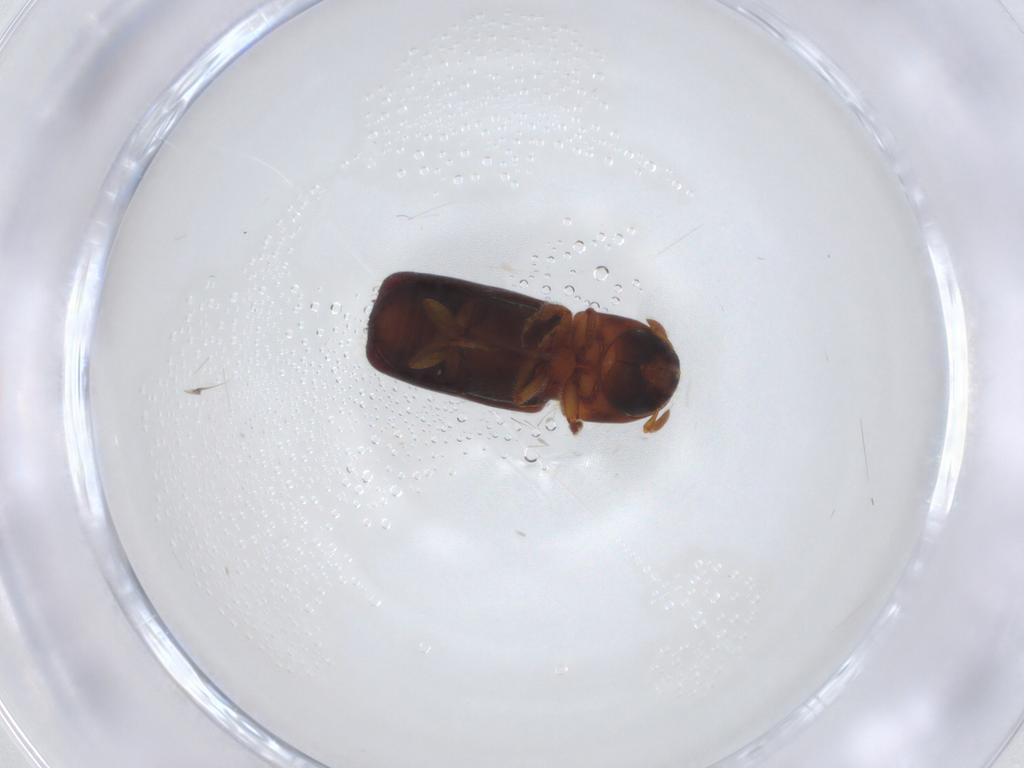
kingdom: Animalia
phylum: Arthropoda
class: Insecta
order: Coleoptera
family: Curculionidae
